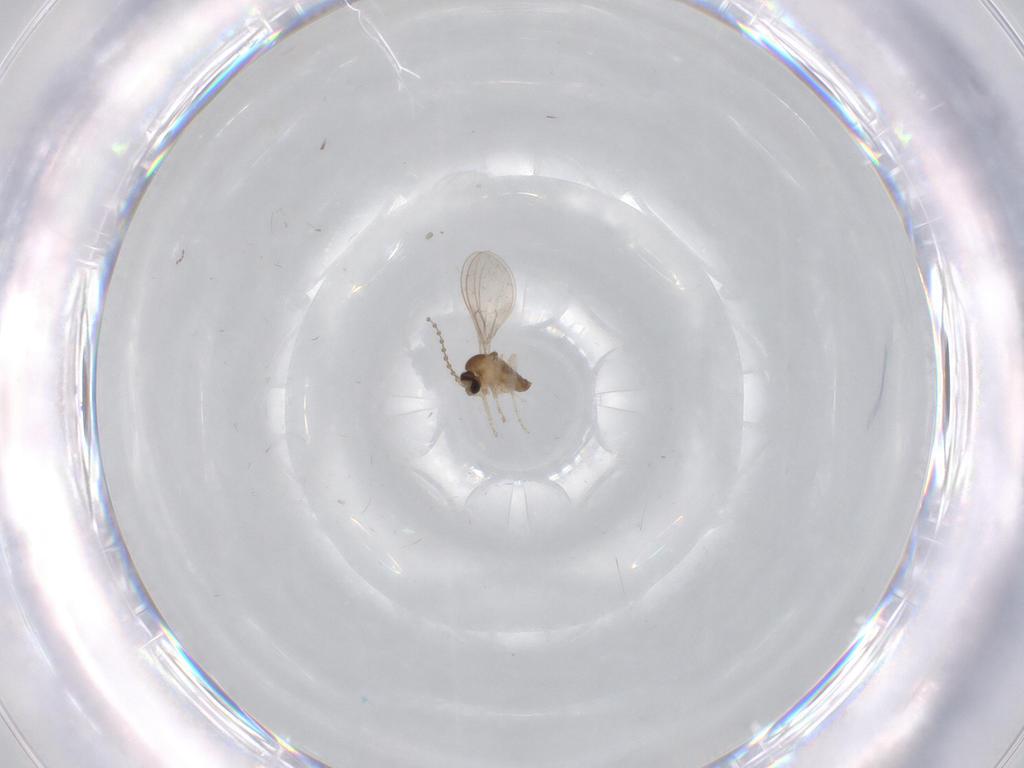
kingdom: Animalia
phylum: Arthropoda
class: Insecta
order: Diptera
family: Cecidomyiidae
